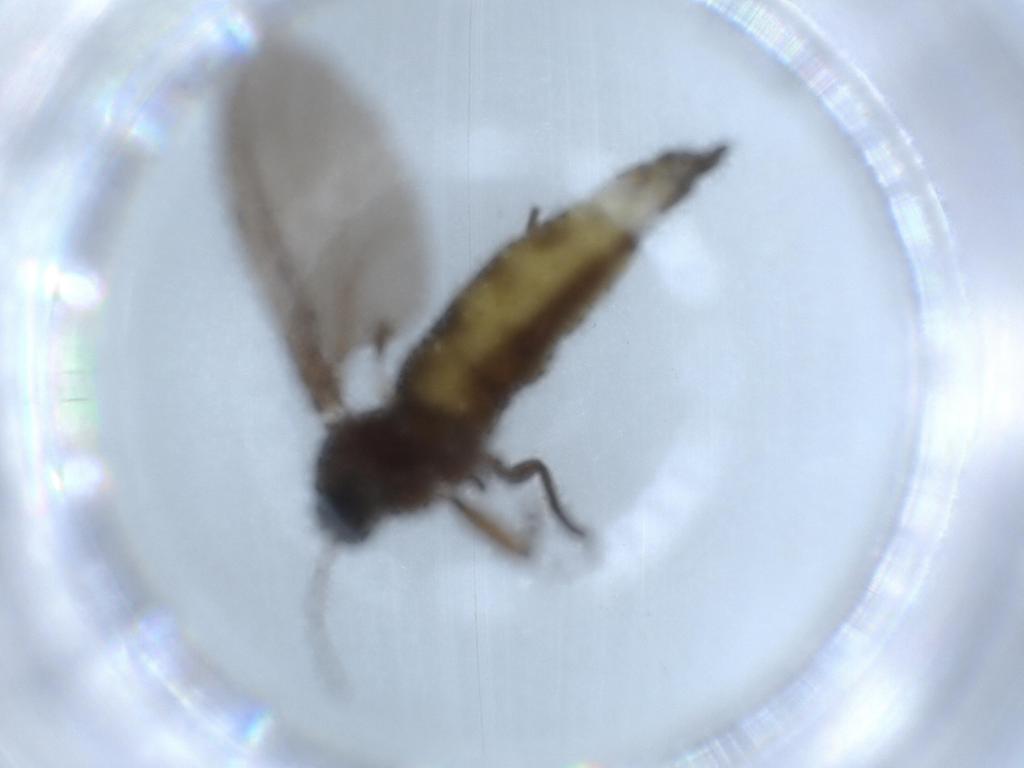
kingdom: Animalia
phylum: Arthropoda
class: Insecta
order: Diptera
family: Sciaridae
